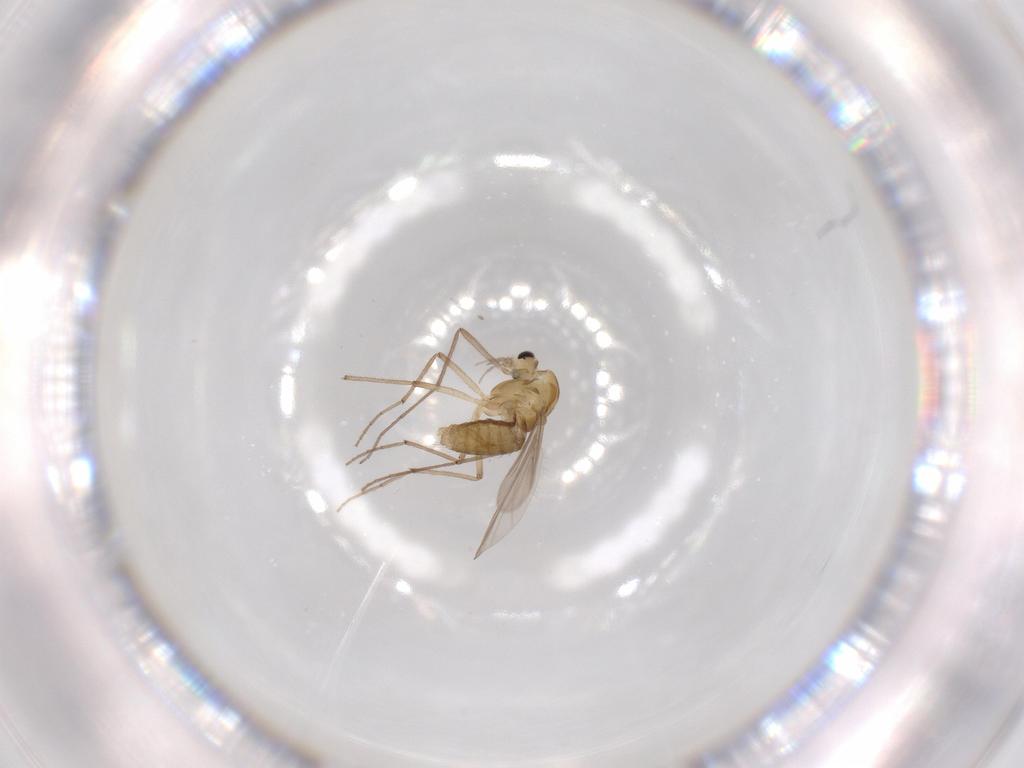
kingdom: Animalia
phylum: Arthropoda
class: Insecta
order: Diptera
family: Chironomidae
